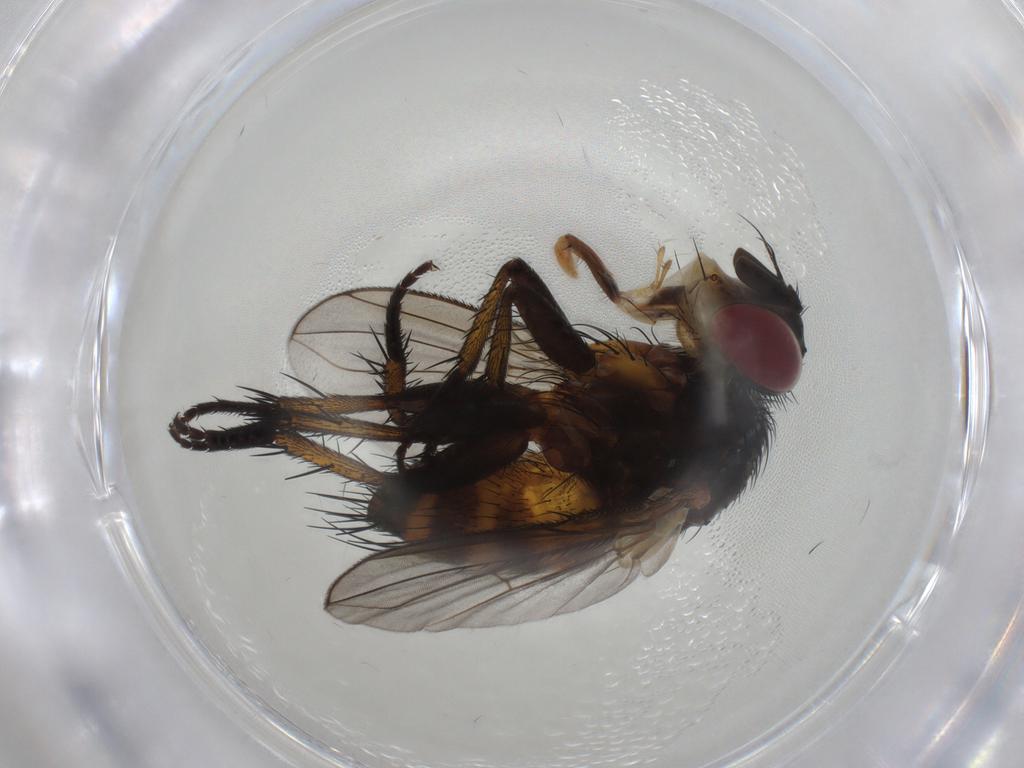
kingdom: Animalia
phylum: Arthropoda
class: Insecta
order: Diptera
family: Tachinidae
